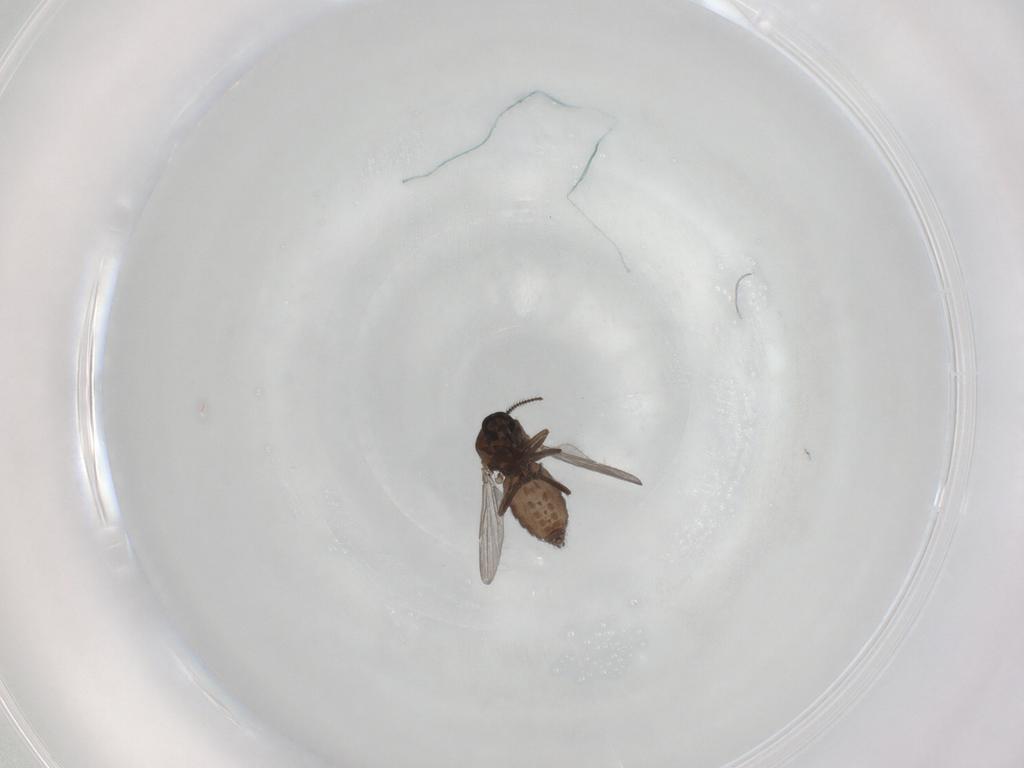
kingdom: Animalia
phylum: Arthropoda
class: Insecta
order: Diptera
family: Ceratopogonidae
